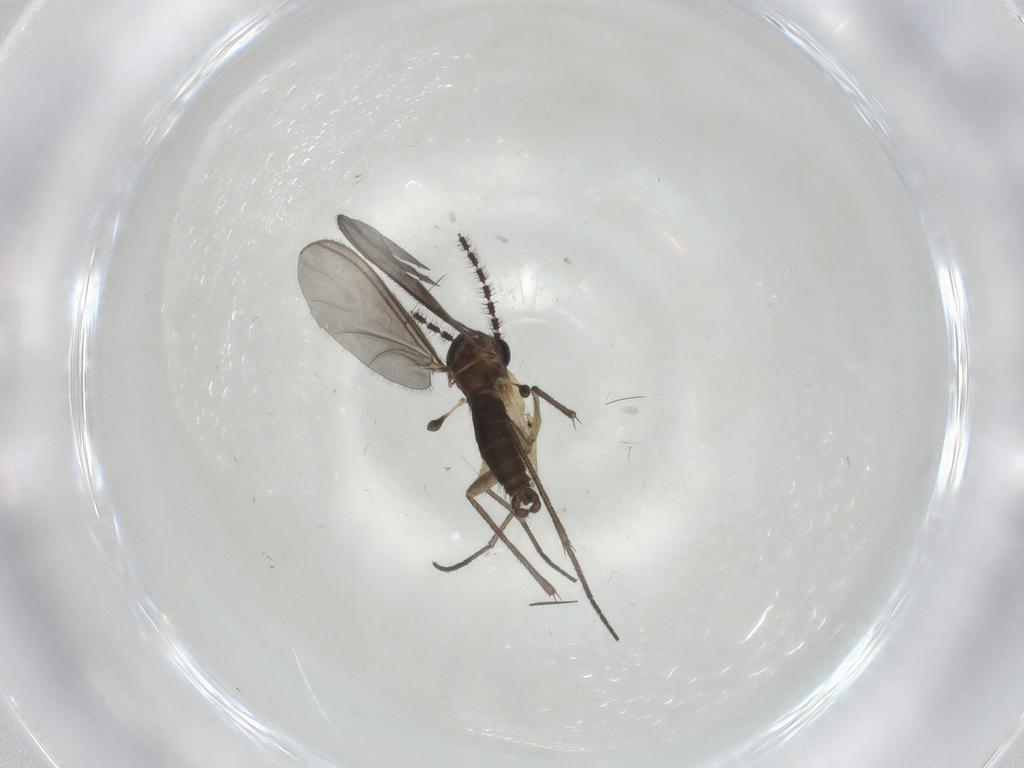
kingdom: Animalia
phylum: Arthropoda
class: Insecta
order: Diptera
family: Sciaridae
